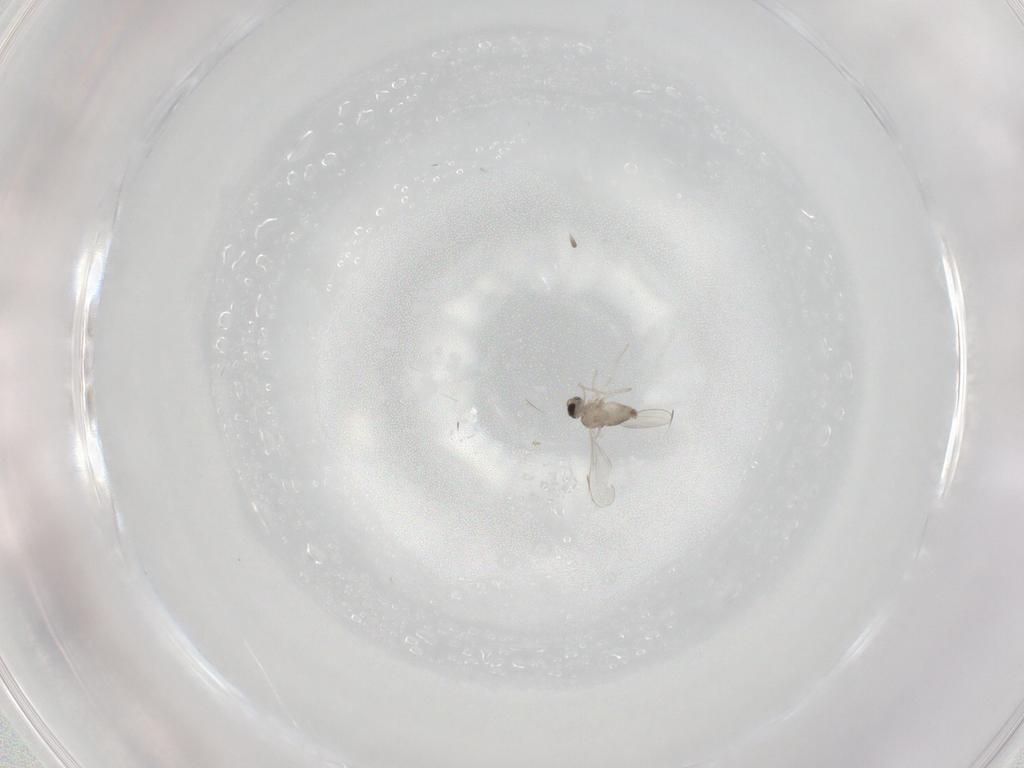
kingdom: Animalia
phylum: Arthropoda
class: Insecta
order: Diptera
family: Cecidomyiidae
